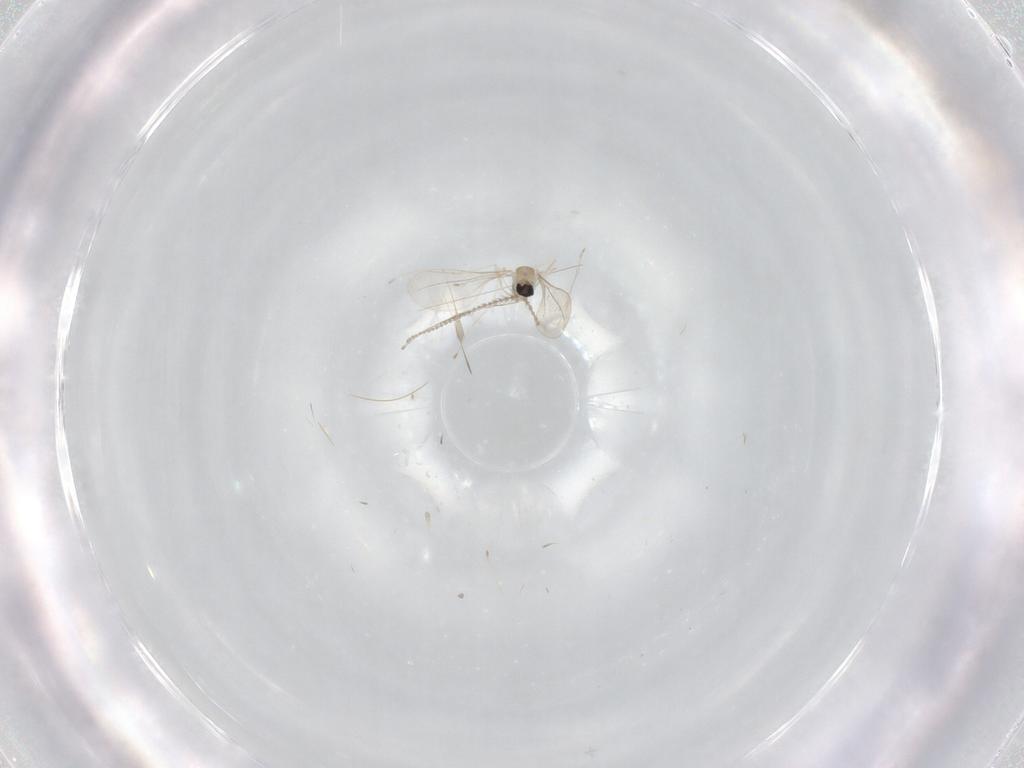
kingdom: Animalia
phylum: Arthropoda
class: Insecta
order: Diptera
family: Cecidomyiidae
